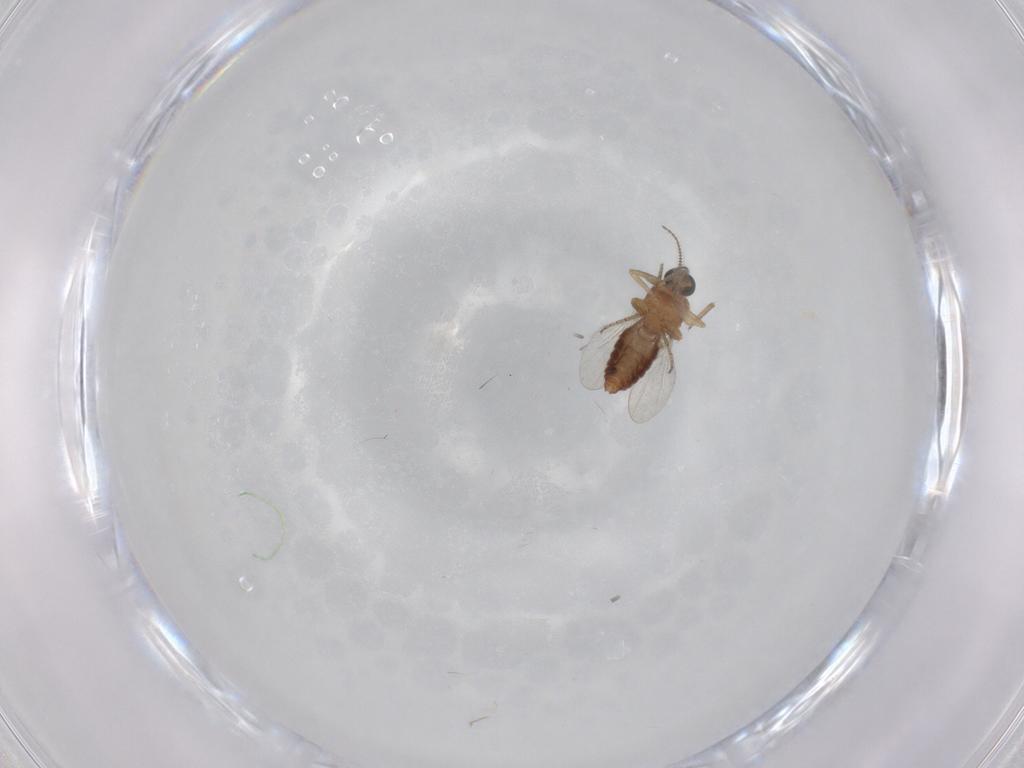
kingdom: Animalia
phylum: Arthropoda
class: Insecta
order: Diptera
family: Ceratopogonidae
